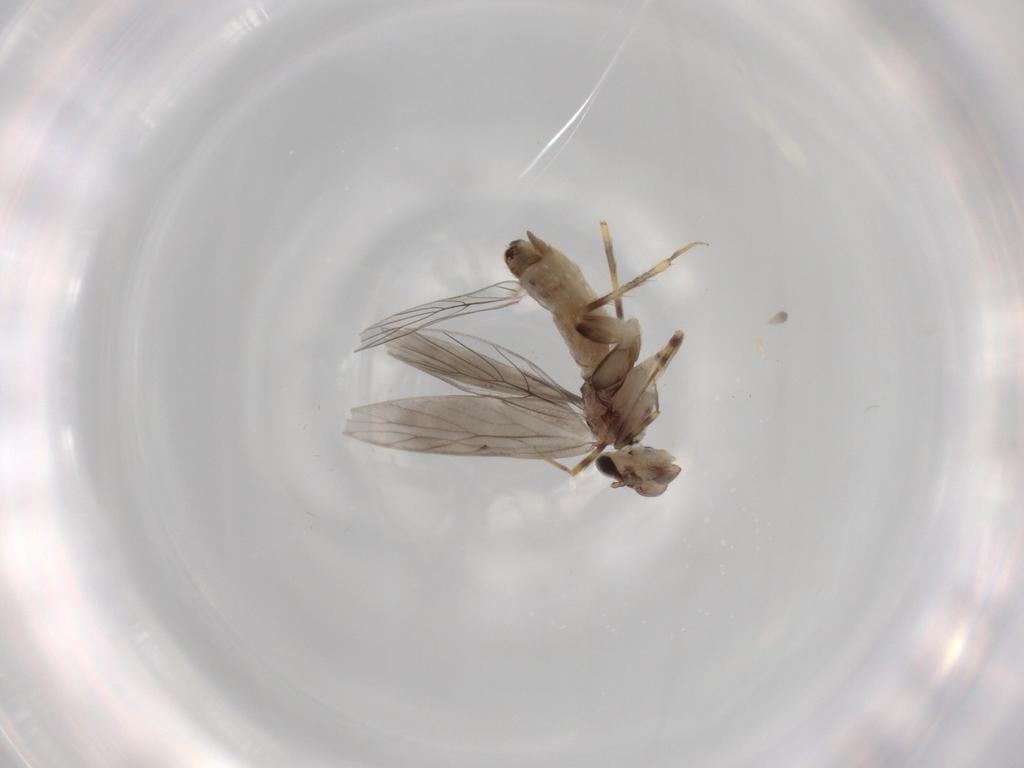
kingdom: Animalia
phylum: Arthropoda
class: Insecta
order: Psocodea
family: Lepidopsocidae
